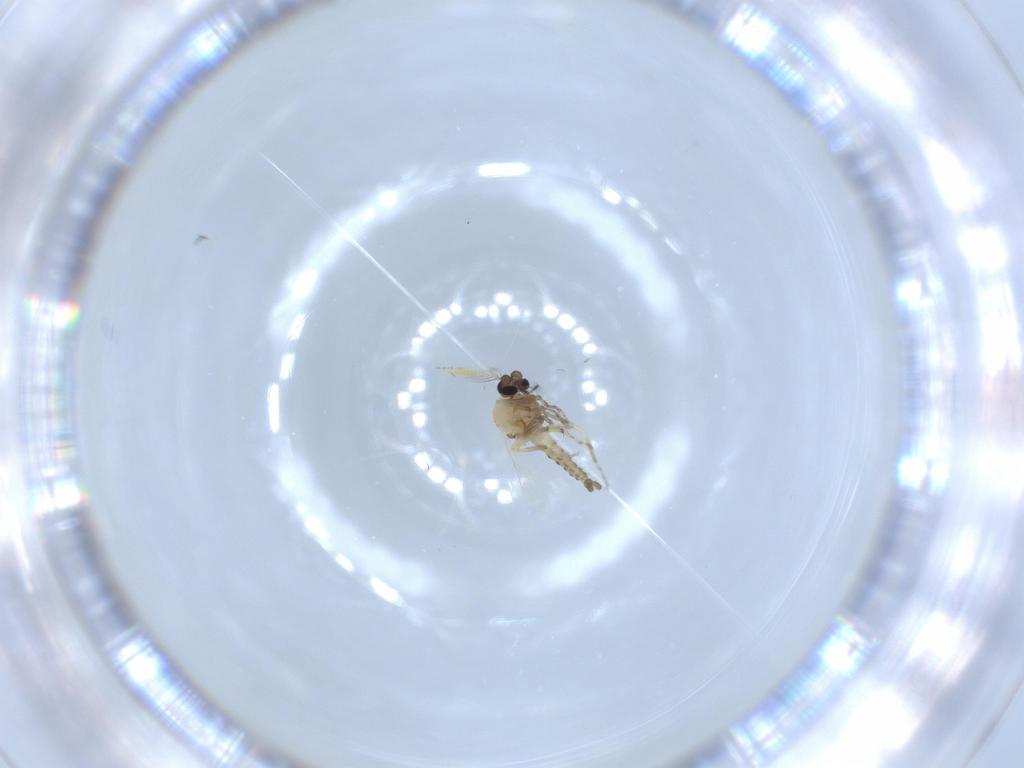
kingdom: Animalia
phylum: Arthropoda
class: Insecta
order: Diptera
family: Ceratopogonidae
